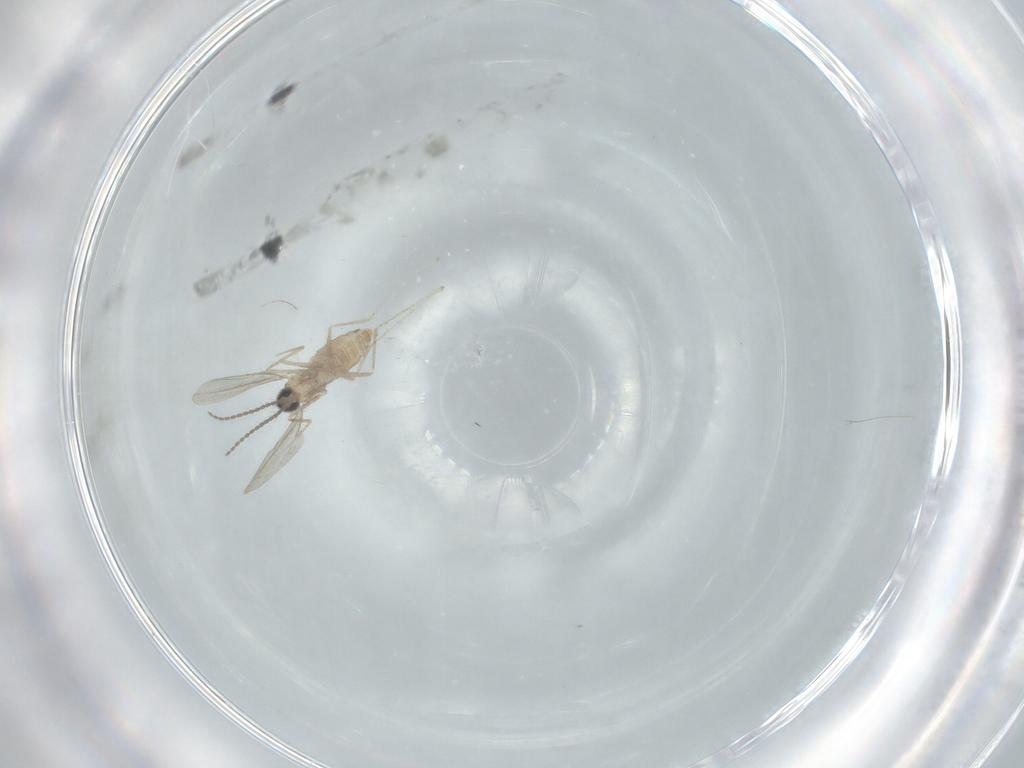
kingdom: Animalia
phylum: Arthropoda
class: Insecta
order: Diptera
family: Cecidomyiidae
